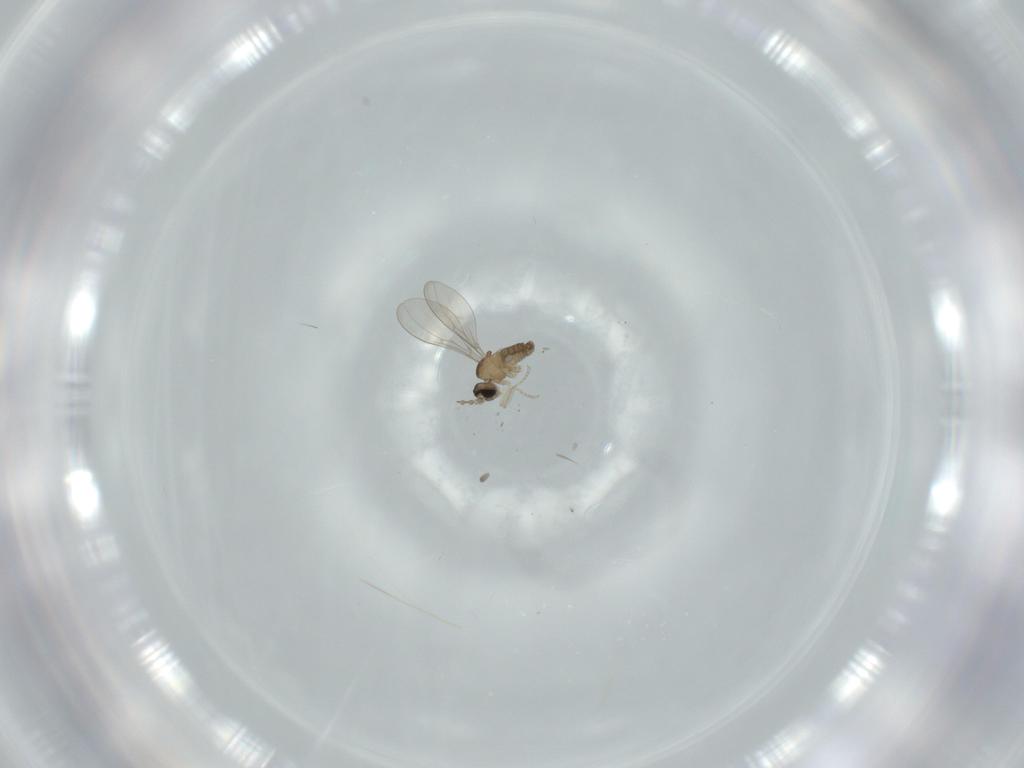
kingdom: Animalia
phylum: Arthropoda
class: Insecta
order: Diptera
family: Cecidomyiidae
